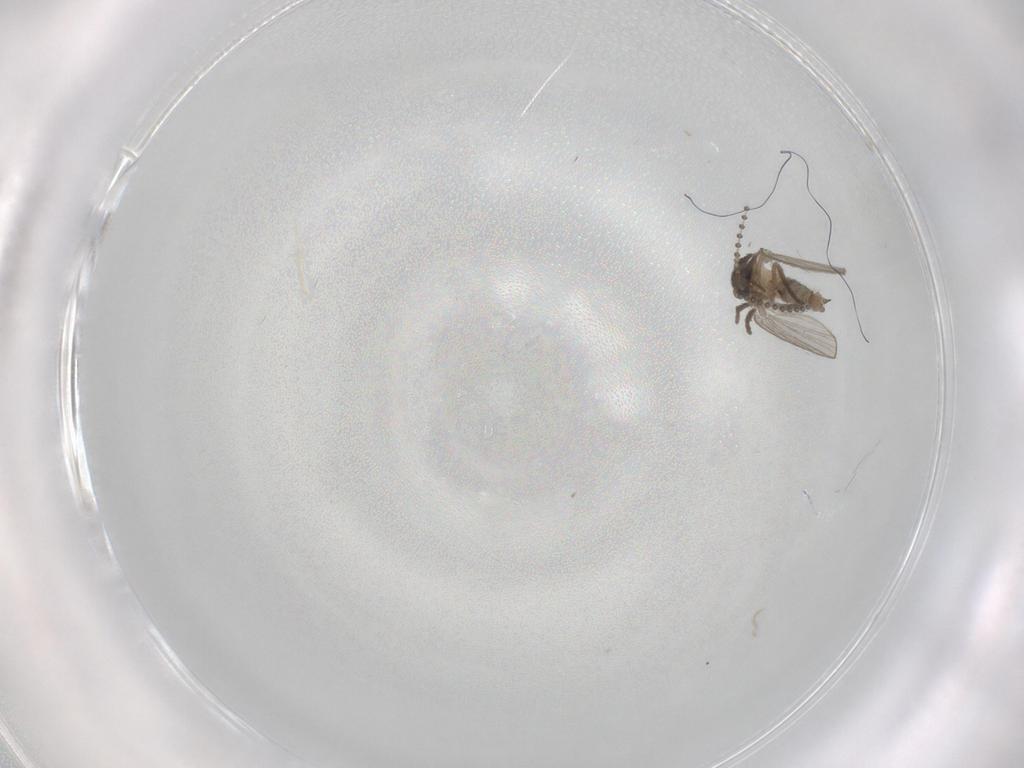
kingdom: Animalia
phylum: Arthropoda
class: Insecta
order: Diptera
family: Psychodidae
